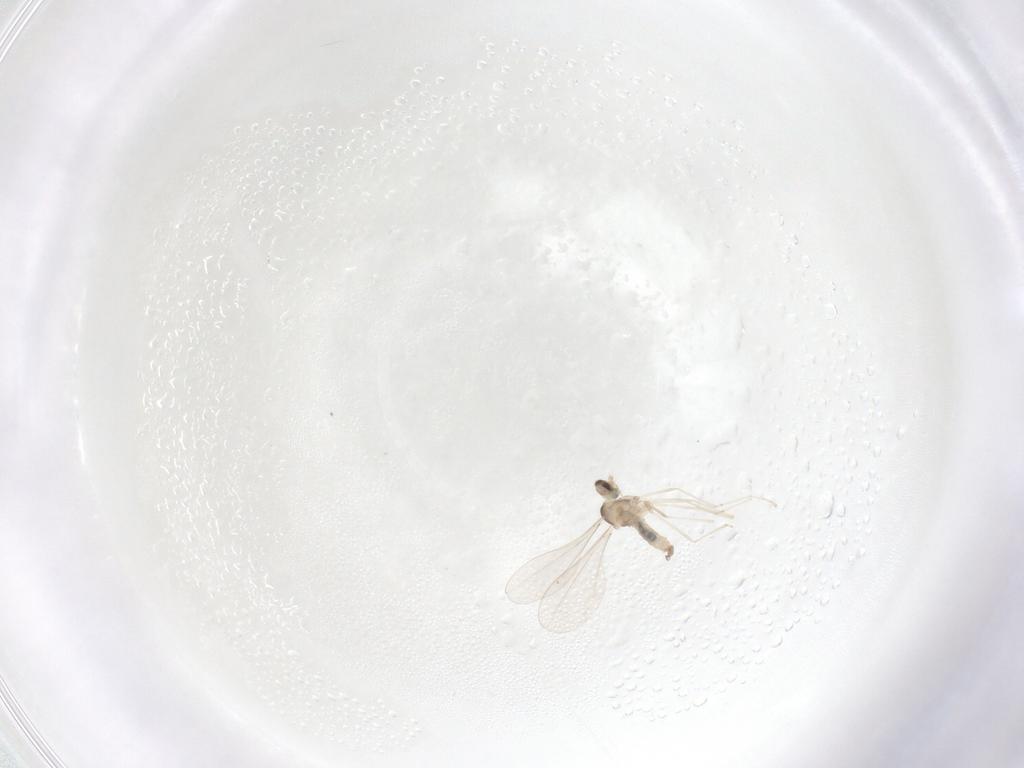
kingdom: Animalia
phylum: Arthropoda
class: Insecta
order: Diptera
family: Cecidomyiidae
